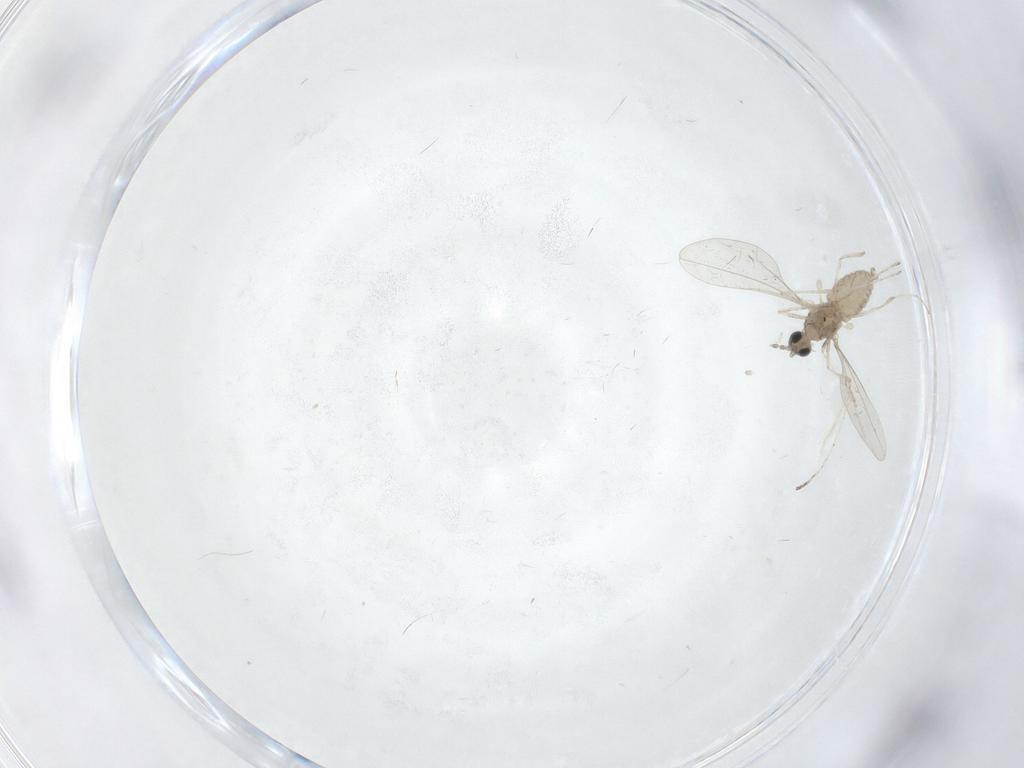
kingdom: Animalia
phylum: Arthropoda
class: Insecta
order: Diptera
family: Cecidomyiidae
